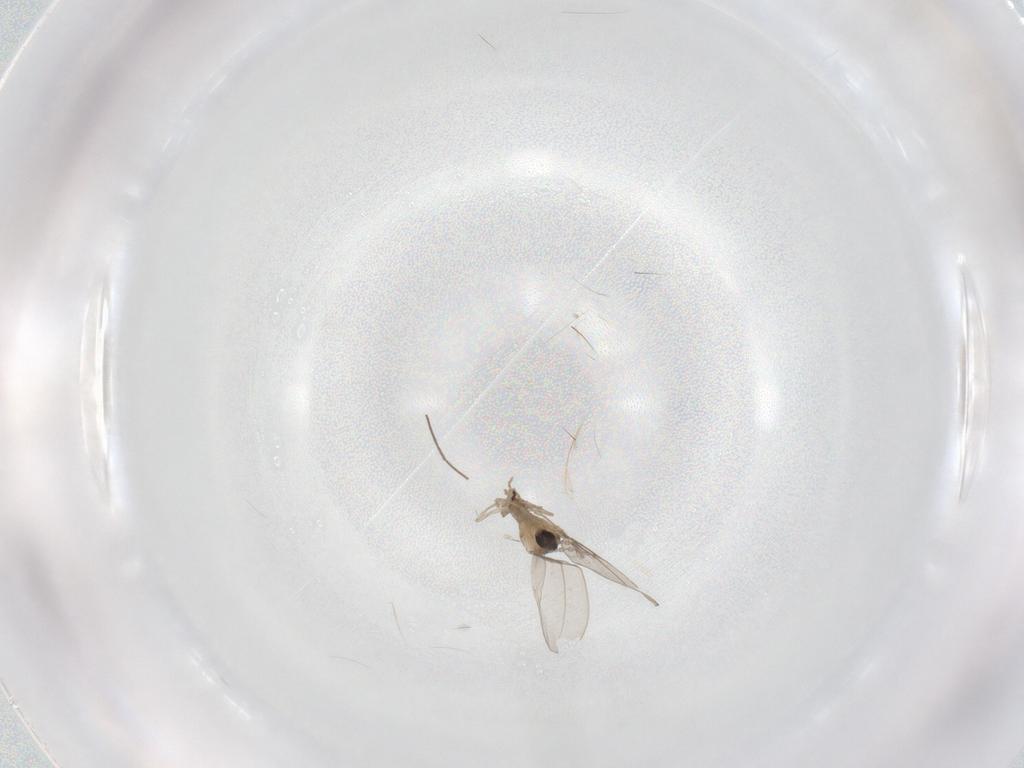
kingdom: Animalia
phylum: Arthropoda
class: Insecta
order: Diptera
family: Cecidomyiidae
